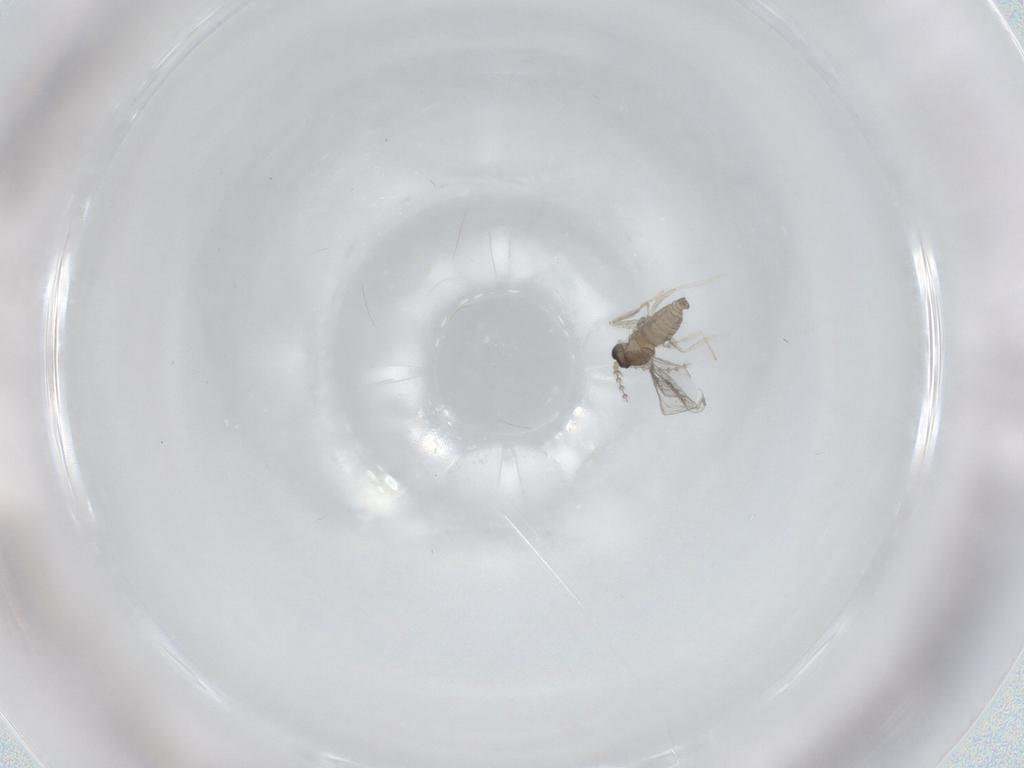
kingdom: Animalia
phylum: Arthropoda
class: Insecta
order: Diptera
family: Cecidomyiidae
